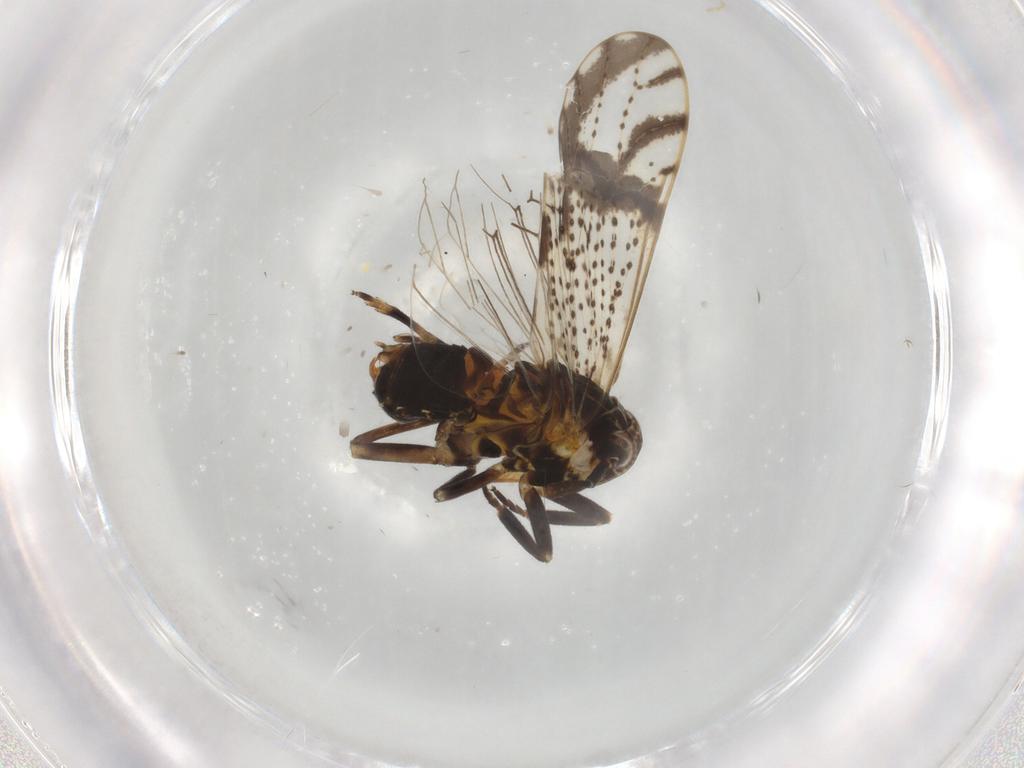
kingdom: Animalia
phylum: Arthropoda
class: Insecta
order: Hemiptera
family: Delphacidae
